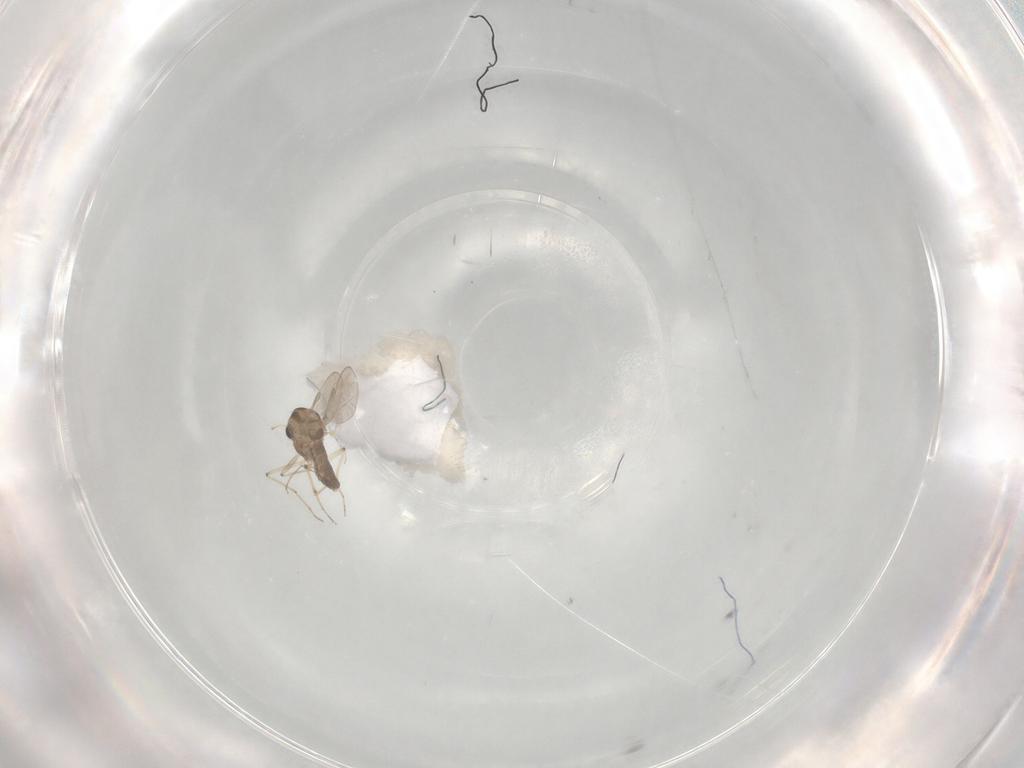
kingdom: Animalia
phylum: Arthropoda
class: Insecta
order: Diptera
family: Chironomidae
